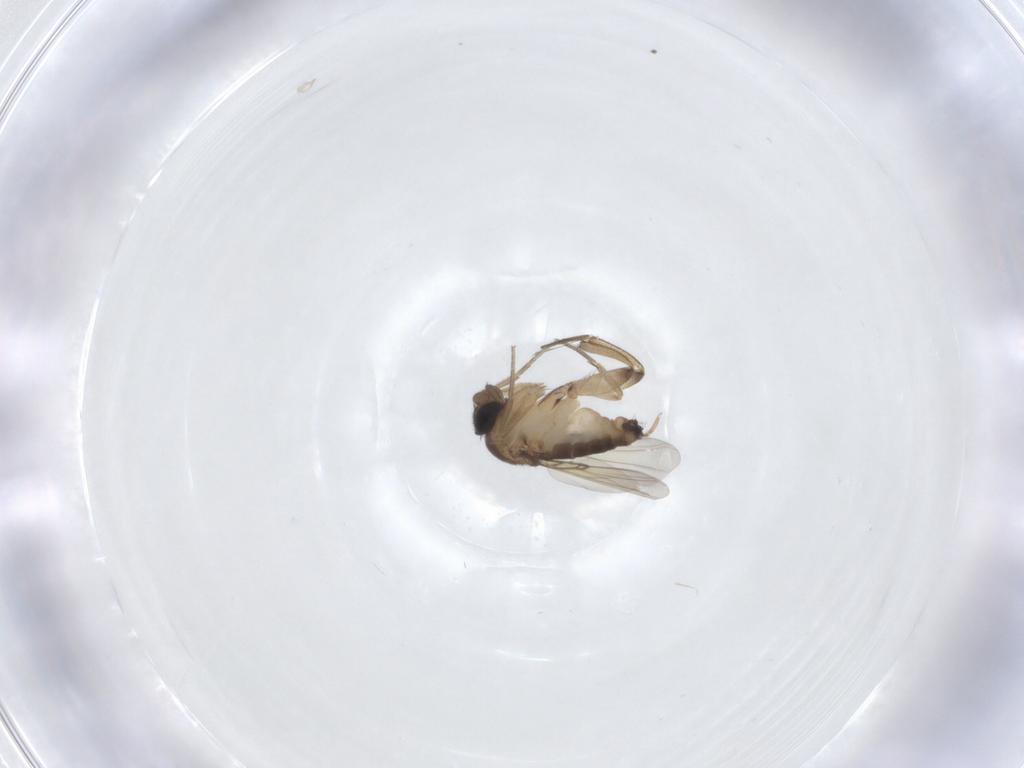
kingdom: Animalia
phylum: Arthropoda
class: Insecta
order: Diptera
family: Phoridae
